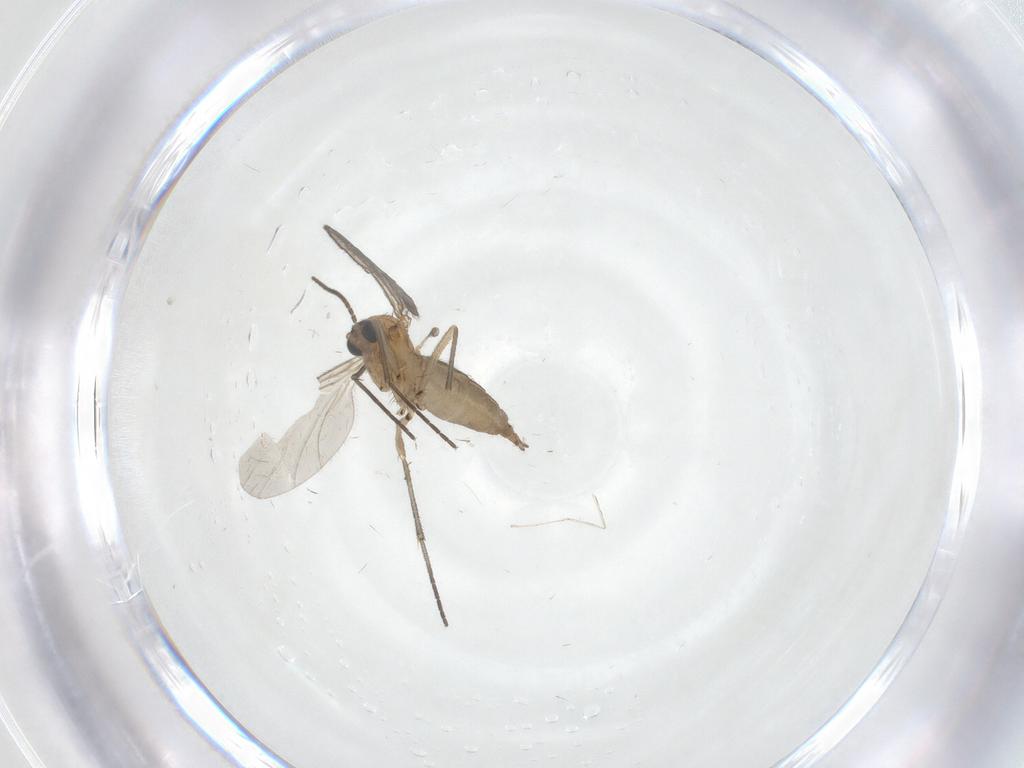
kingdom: Animalia
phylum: Arthropoda
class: Insecta
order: Diptera
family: Sciaridae
